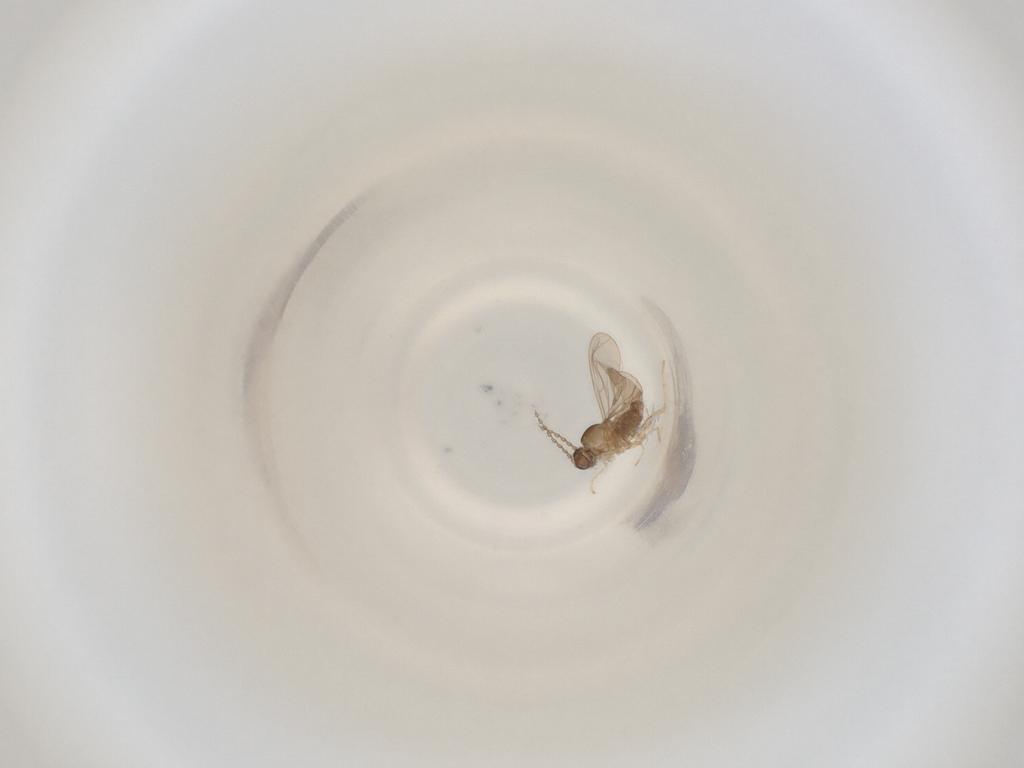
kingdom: Animalia
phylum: Arthropoda
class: Insecta
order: Diptera
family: Cecidomyiidae
